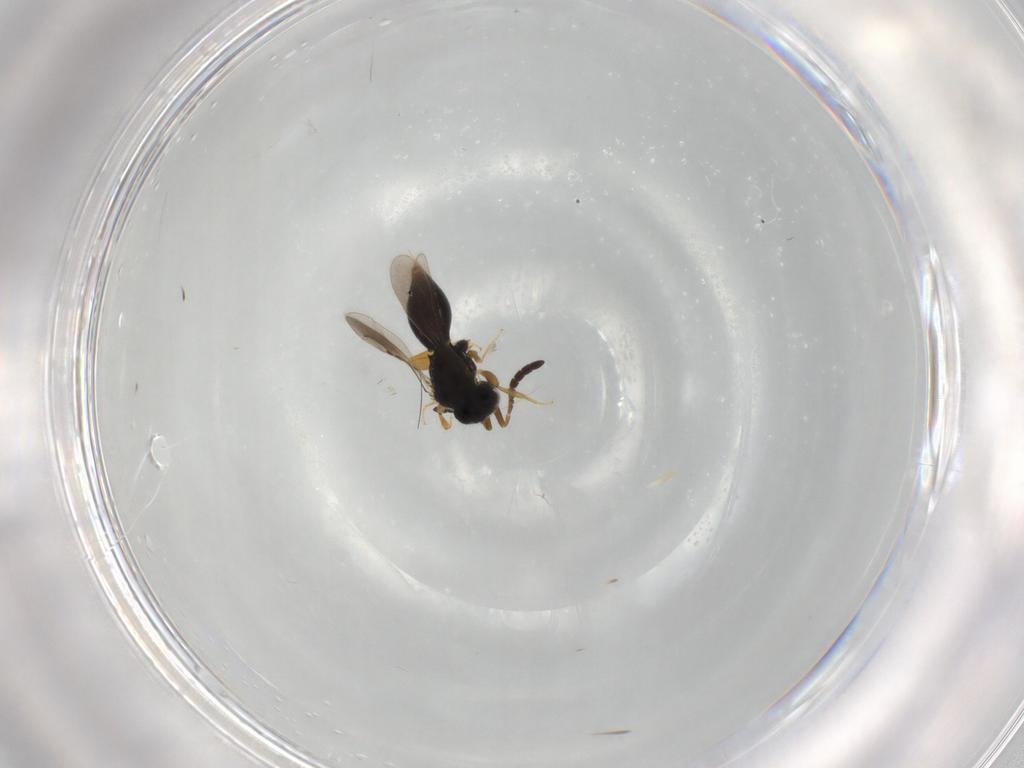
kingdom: Animalia
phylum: Arthropoda
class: Insecta
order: Hymenoptera
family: Ceraphronidae
